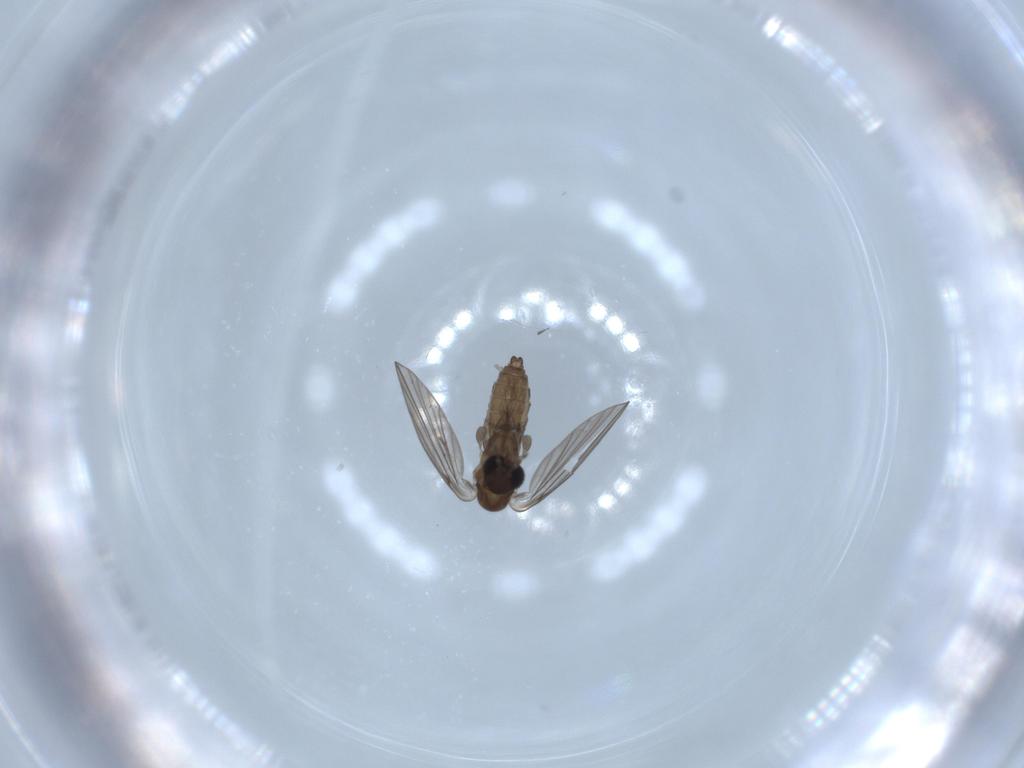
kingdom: Animalia
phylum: Arthropoda
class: Insecta
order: Diptera
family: Psychodidae
